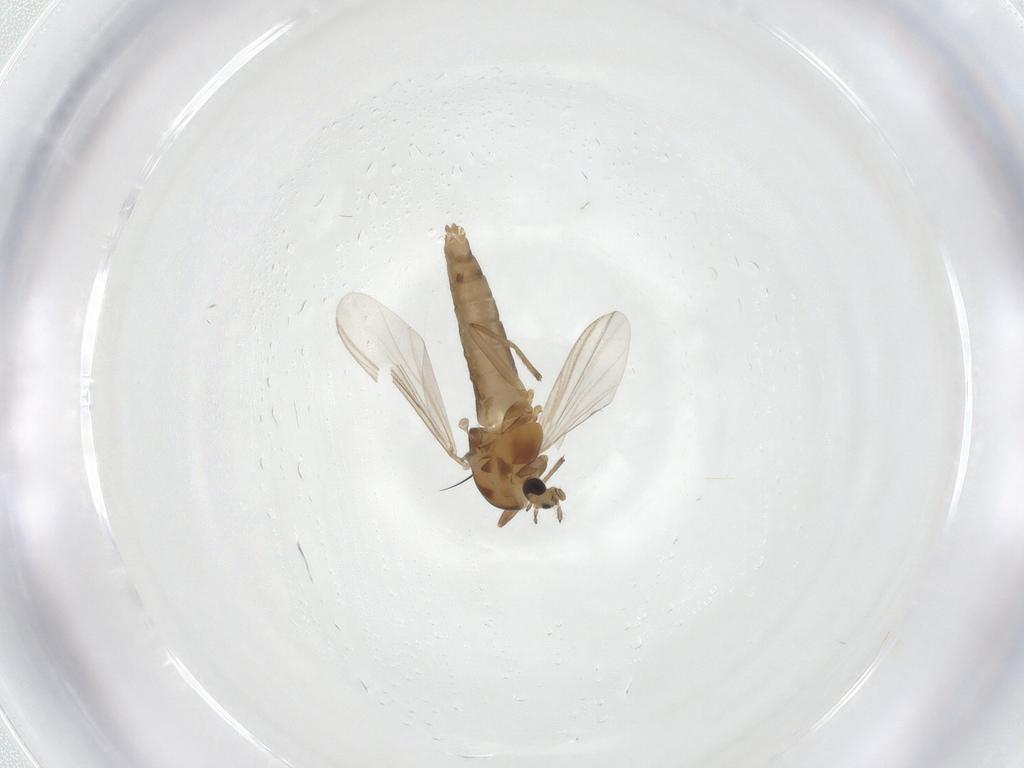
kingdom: Animalia
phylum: Arthropoda
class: Insecta
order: Diptera
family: Chironomidae
